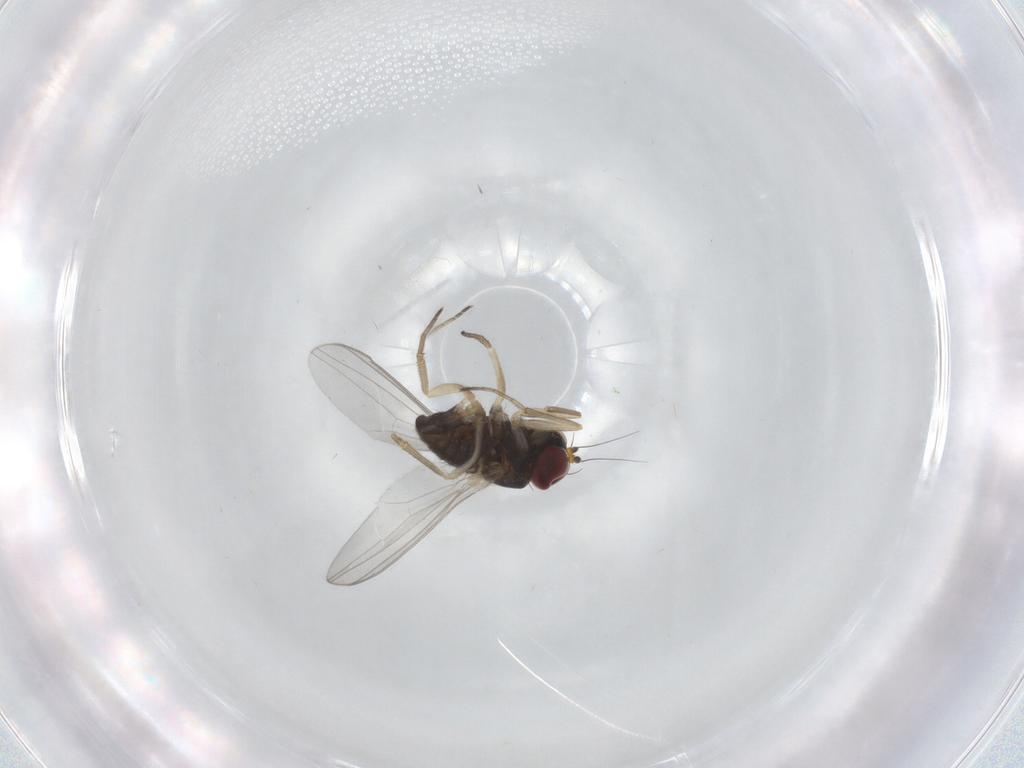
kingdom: Animalia
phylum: Arthropoda
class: Insecta
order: Diptera
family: Dolichopodidae
